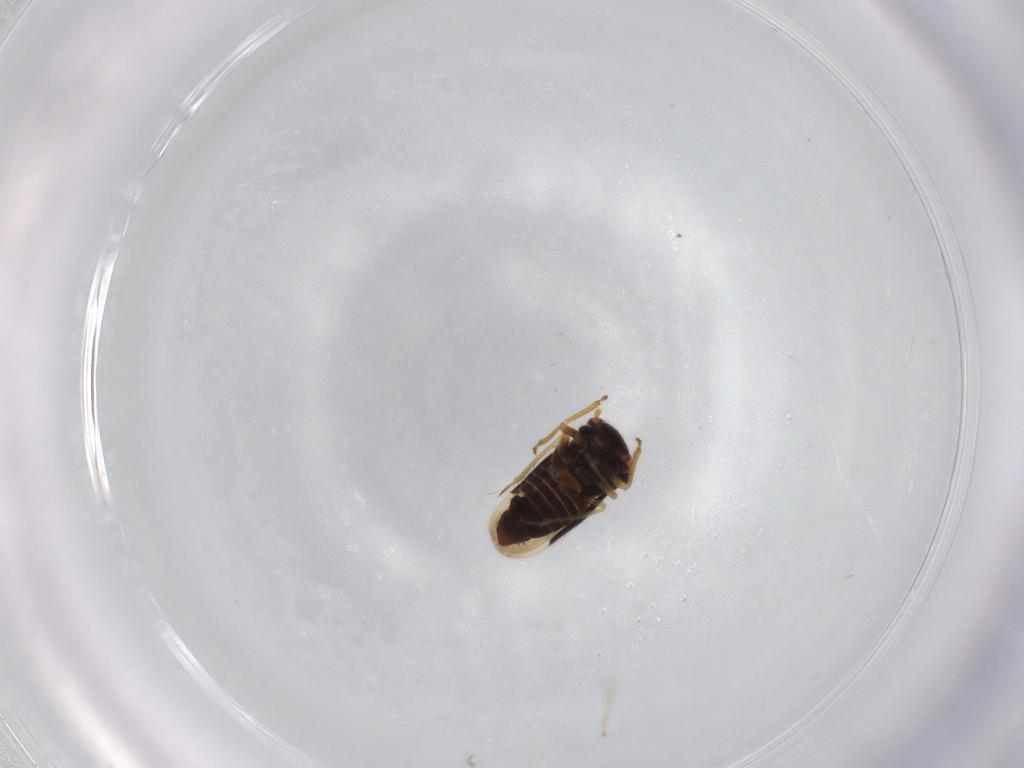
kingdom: Animalia
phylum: Arthropoda
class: Insecta
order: Hemiptera
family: Schizopteridae
